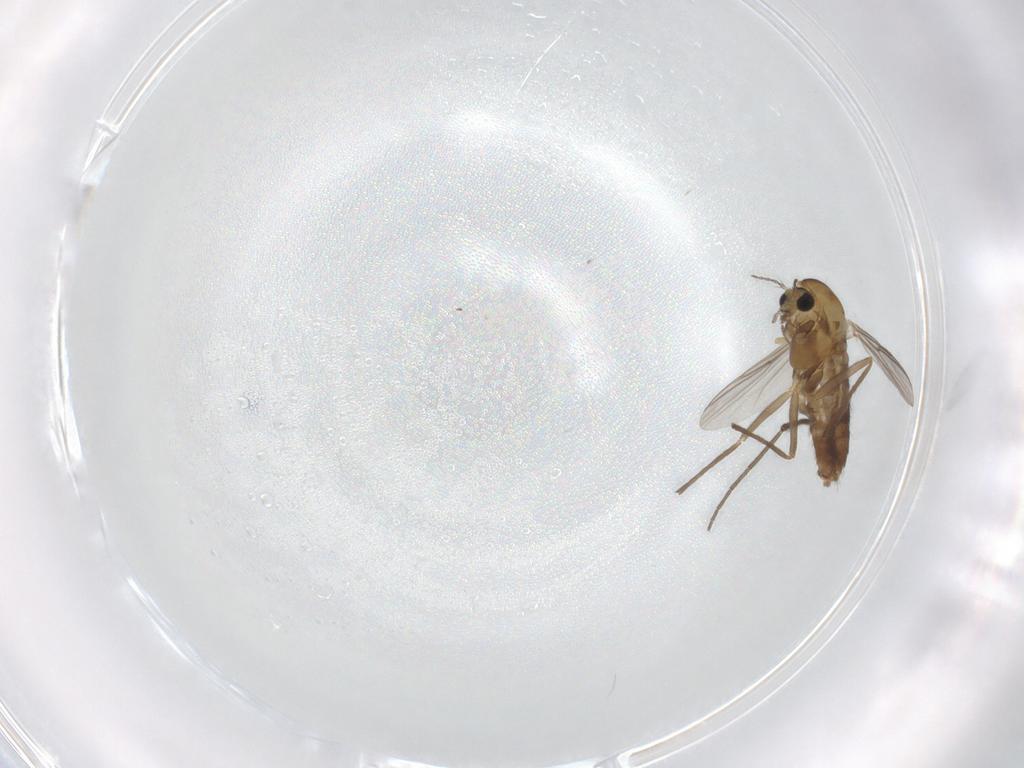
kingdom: Animalia
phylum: Arthropoda
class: Insecta
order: Diptera
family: Chironomidae
